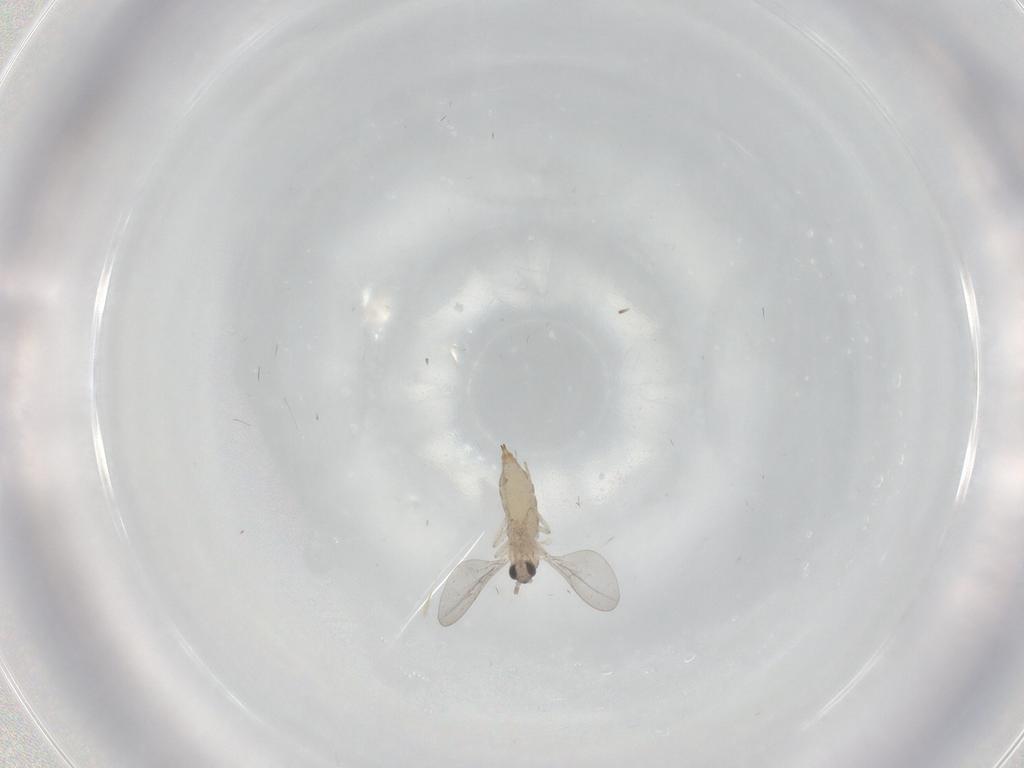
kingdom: Animalia
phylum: Arthropoda
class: Insecta
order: Diptera
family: Cecidomyiidae
